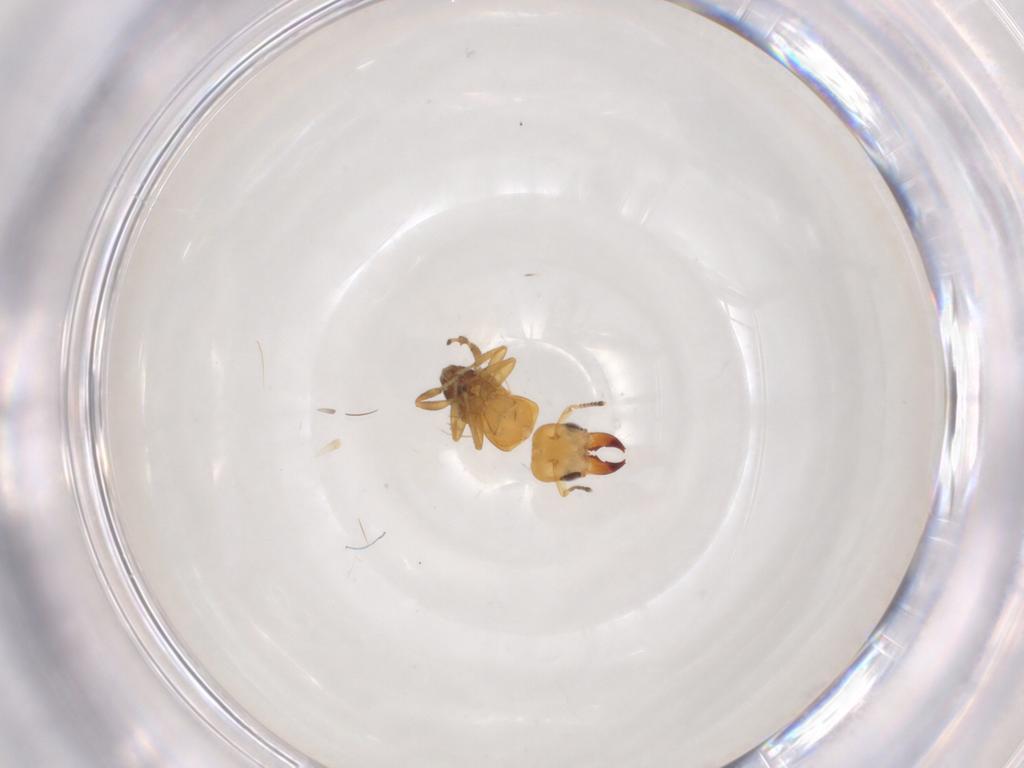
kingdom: Animalia
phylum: Arthropoda
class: Insecta
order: Hymenoptera
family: Pteromalidae
